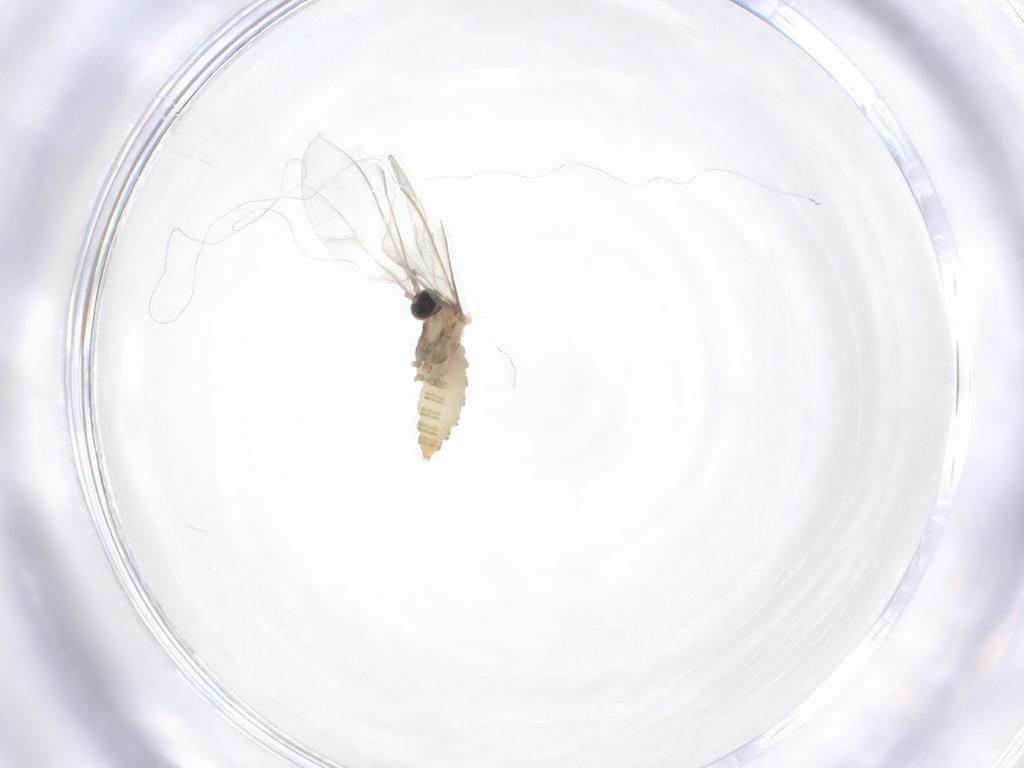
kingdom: Animalia
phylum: Arthropoda
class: Insecta
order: Diptera
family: Cecidomyiidae
